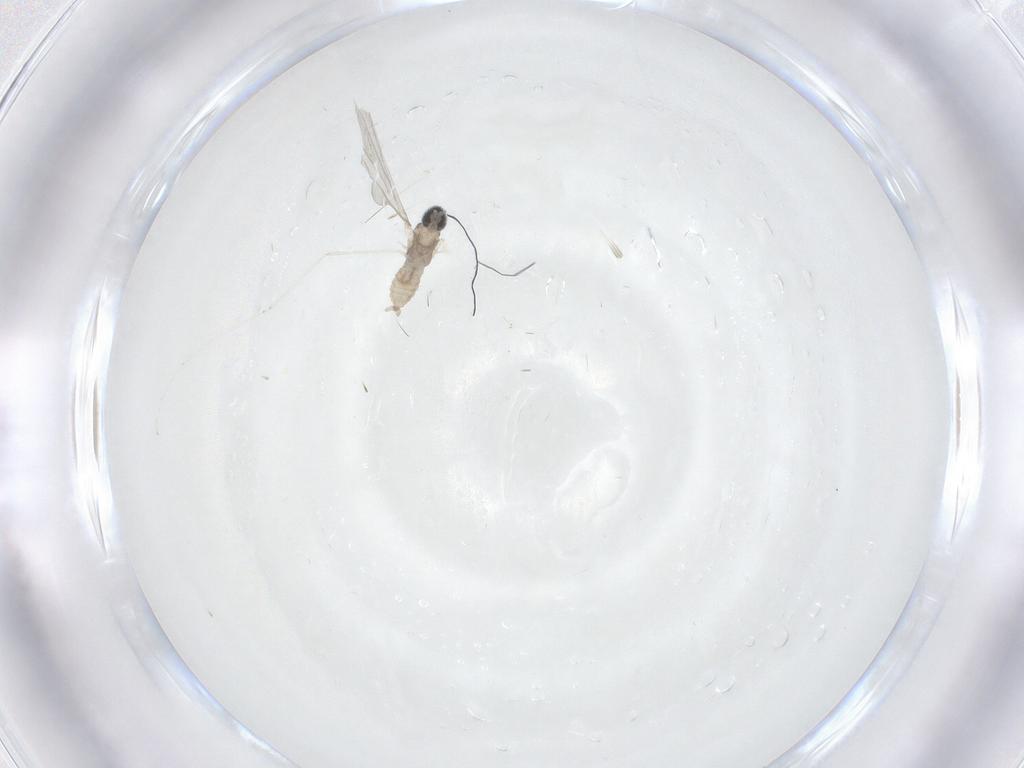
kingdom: Animalia
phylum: Arthropoda
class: Insecta
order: Diptera
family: Cecidomyiidae
